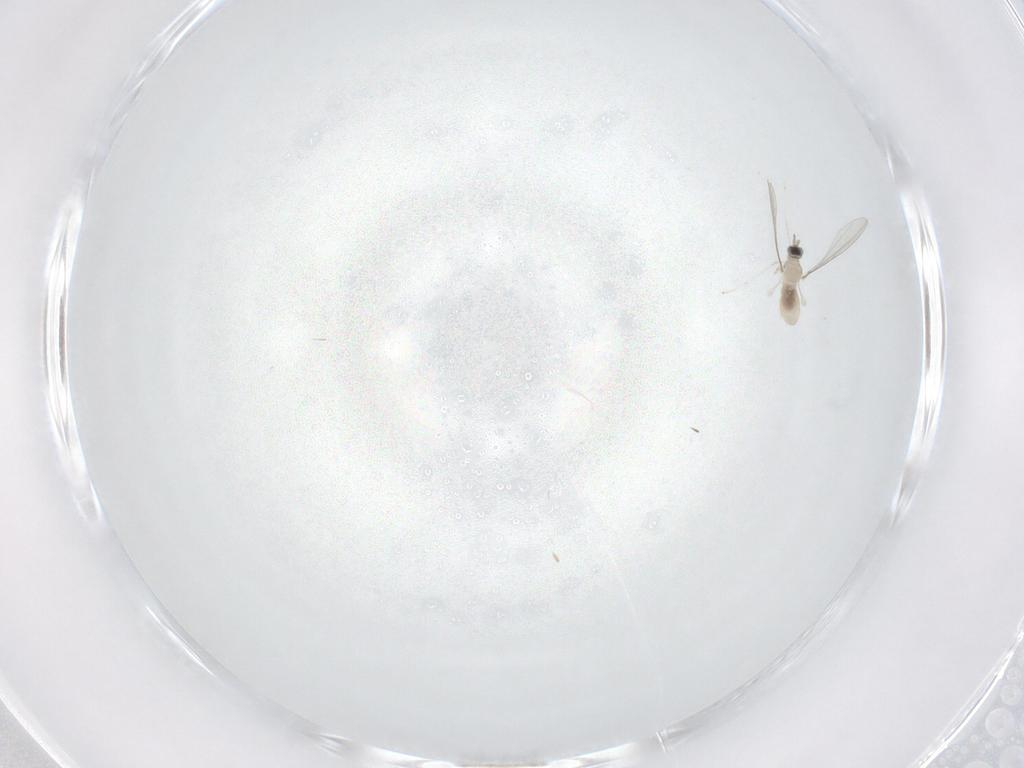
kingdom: Animalia
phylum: Arthropoda
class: Insecta
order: Diptera
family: Cecidomyiidae
